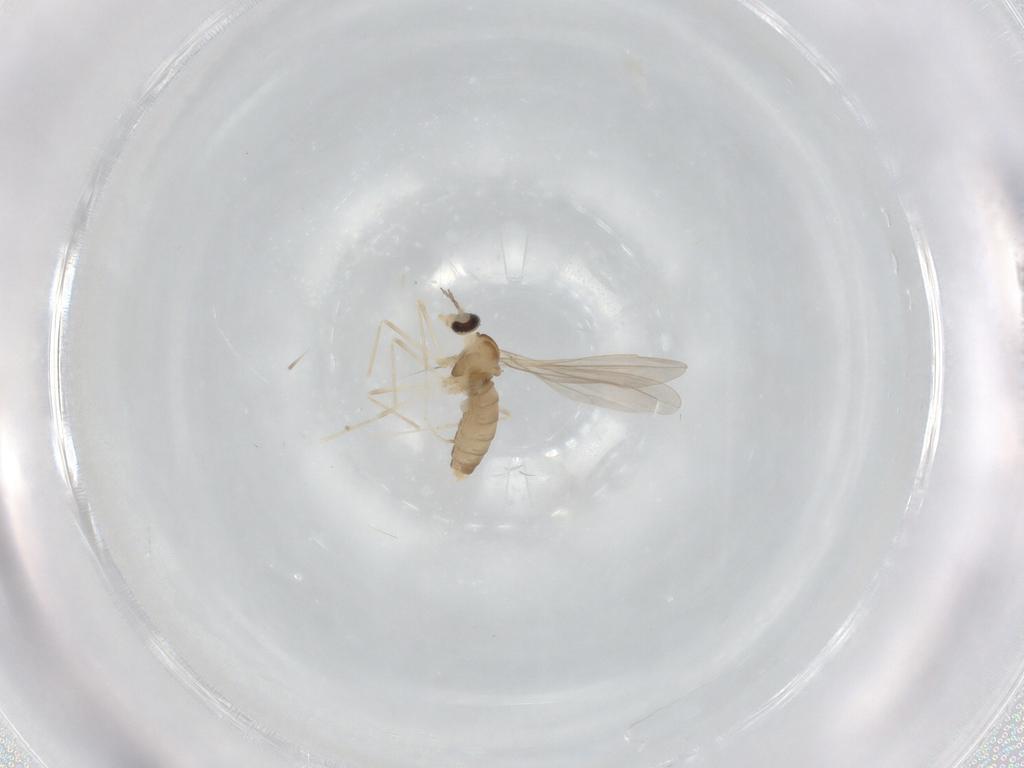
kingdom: Animalia
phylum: Arthropoda
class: Insecta
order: Diptera
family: Cecidomyiidae
